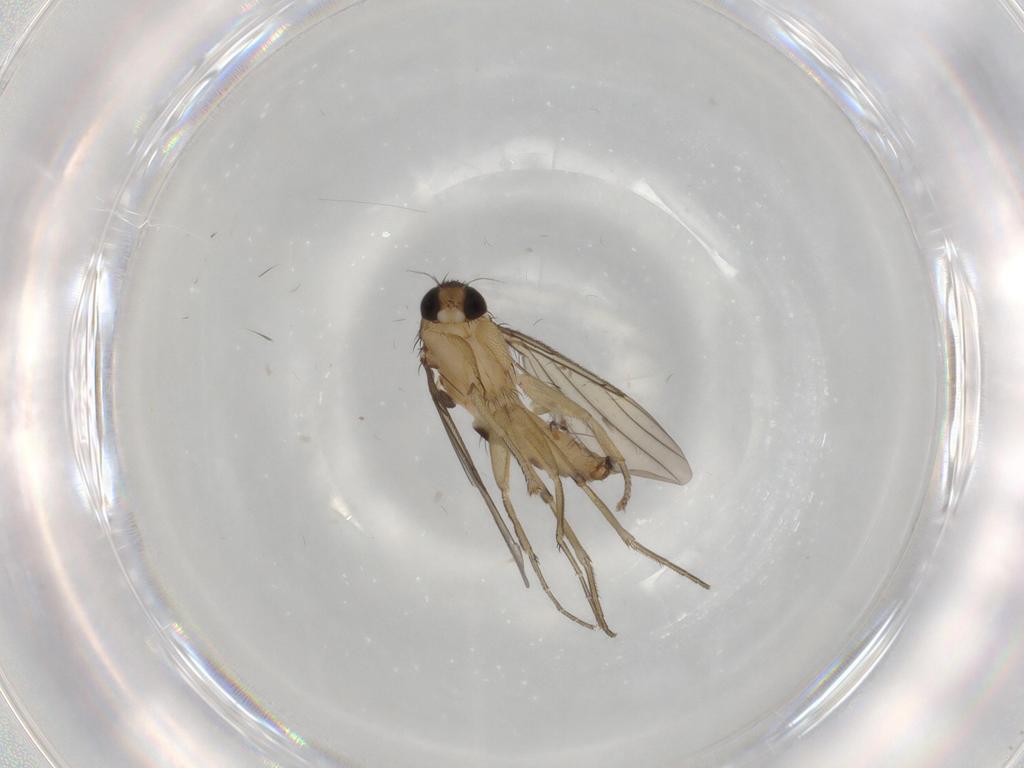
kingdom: Animalia
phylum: Arthropoda
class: Insecta
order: Diptera
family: Phoridae
